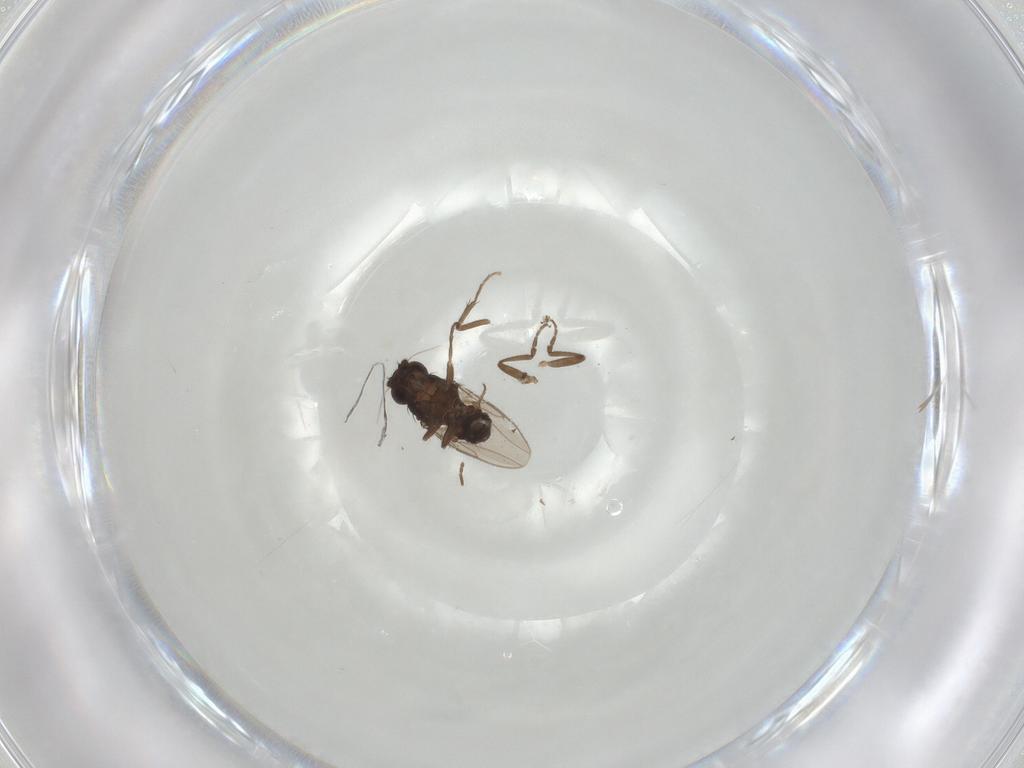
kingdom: Animalia
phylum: Arthropoda
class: Insecta
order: Diptera
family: Sphaeroceridae
